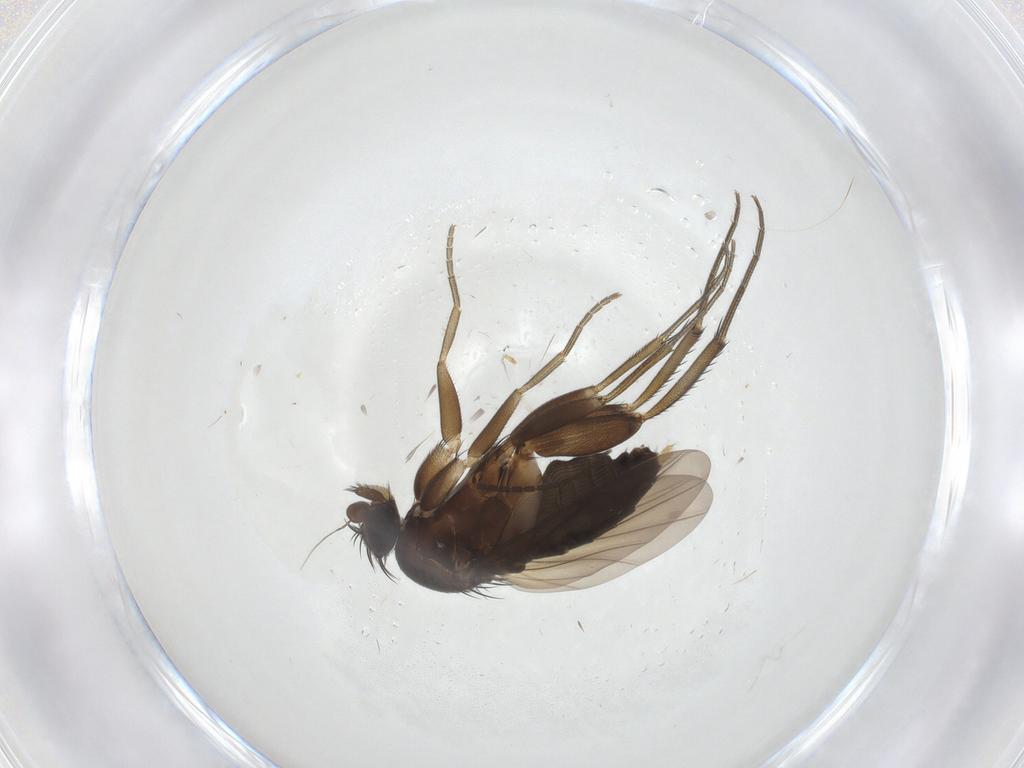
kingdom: Animalia
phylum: Arthropoda
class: Insecta
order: Diptera
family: Phoridae
